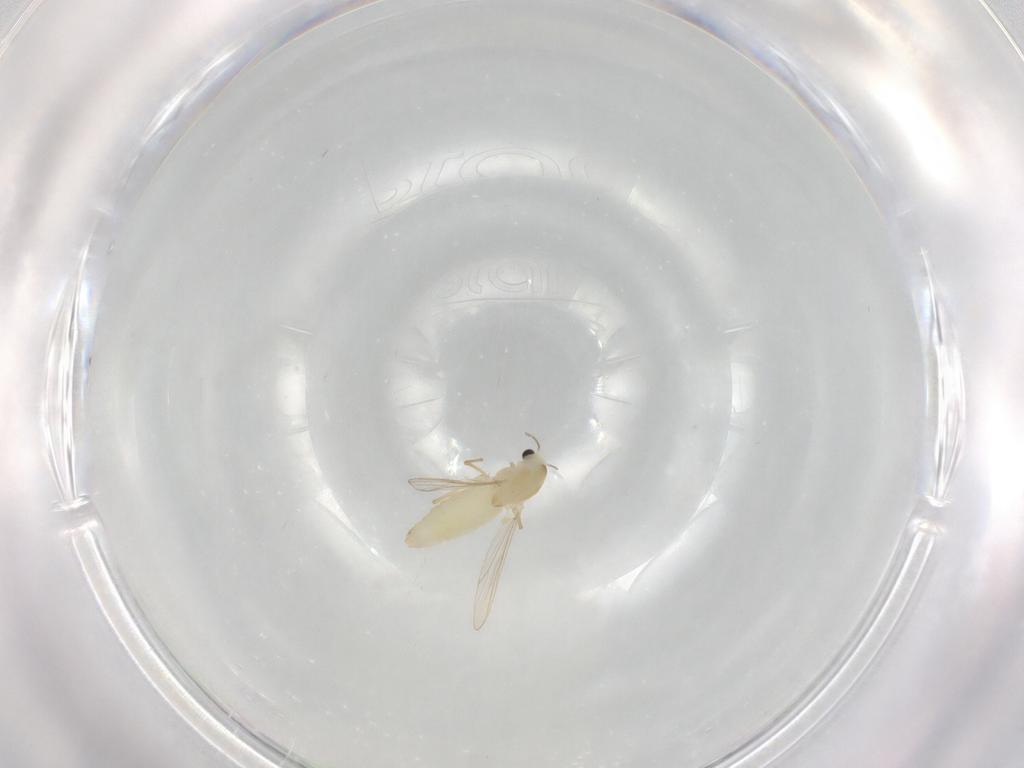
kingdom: Animalia
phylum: Arthropoda
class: Insecta
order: Diptera
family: Chironomidae
